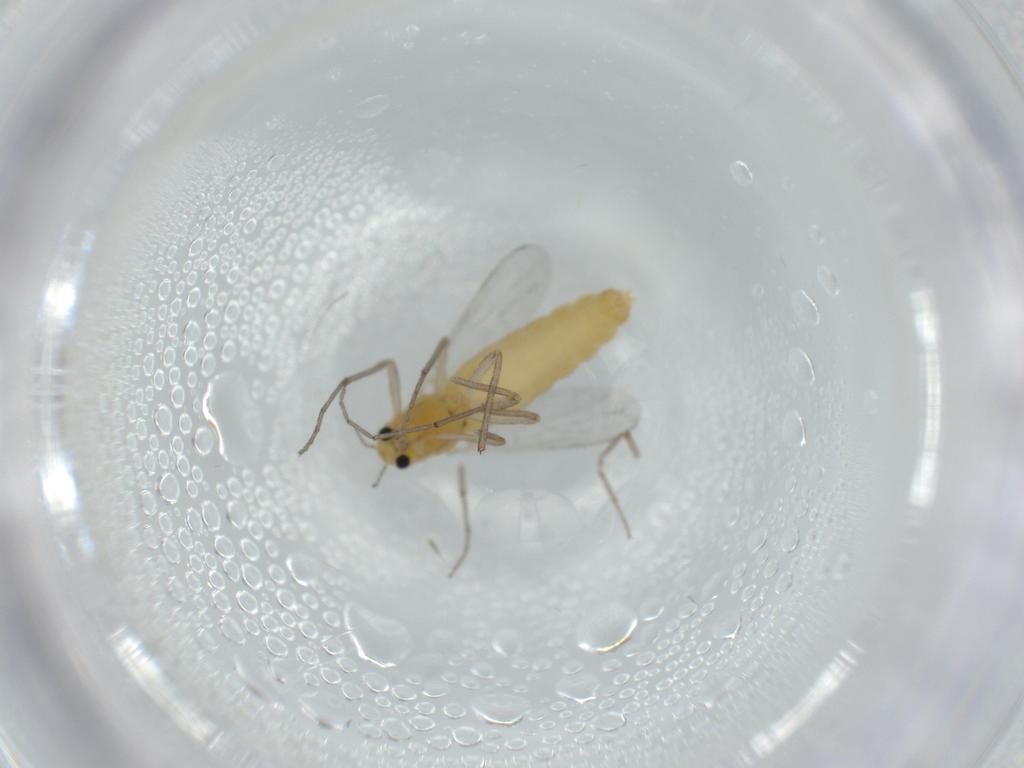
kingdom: Animalia
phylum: Arthropoda
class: Insecta
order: Diptera
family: Chironomidae
